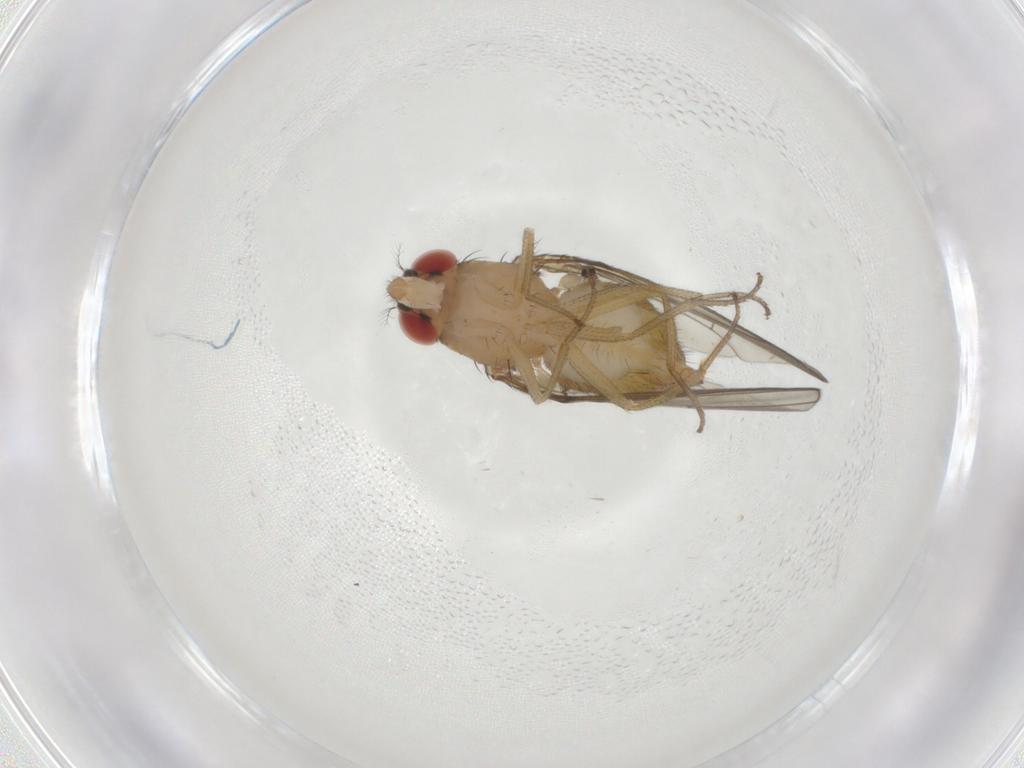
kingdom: Animalia
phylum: Arthropoda
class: Insecta
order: Diptera
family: Drosophilidae
